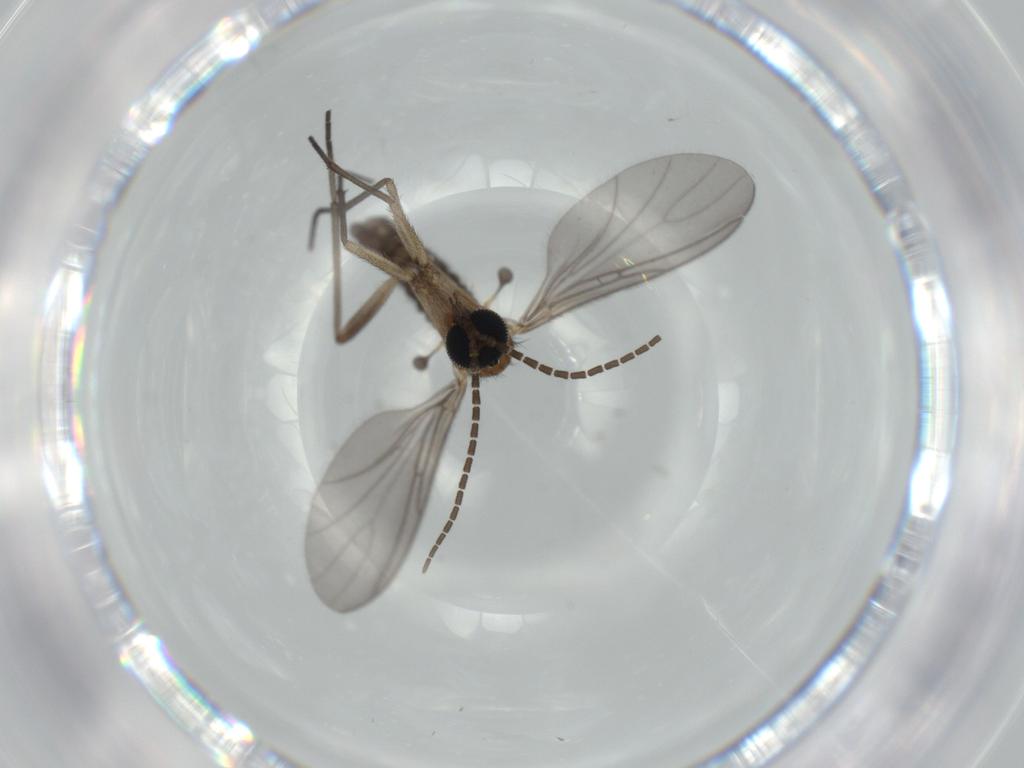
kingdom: Animalia
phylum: Arthropoda
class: Insecta
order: Diptera
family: Sciaridae
